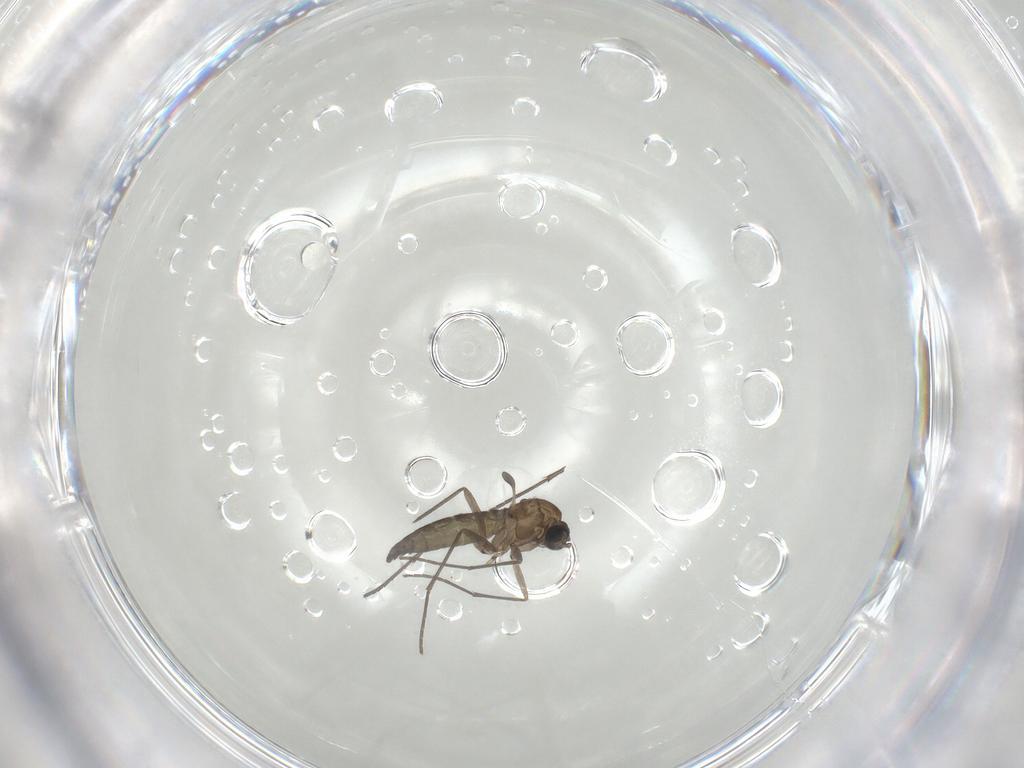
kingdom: Animalia
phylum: Arthropoda
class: Insecta
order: Diptera
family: Sciaridae
